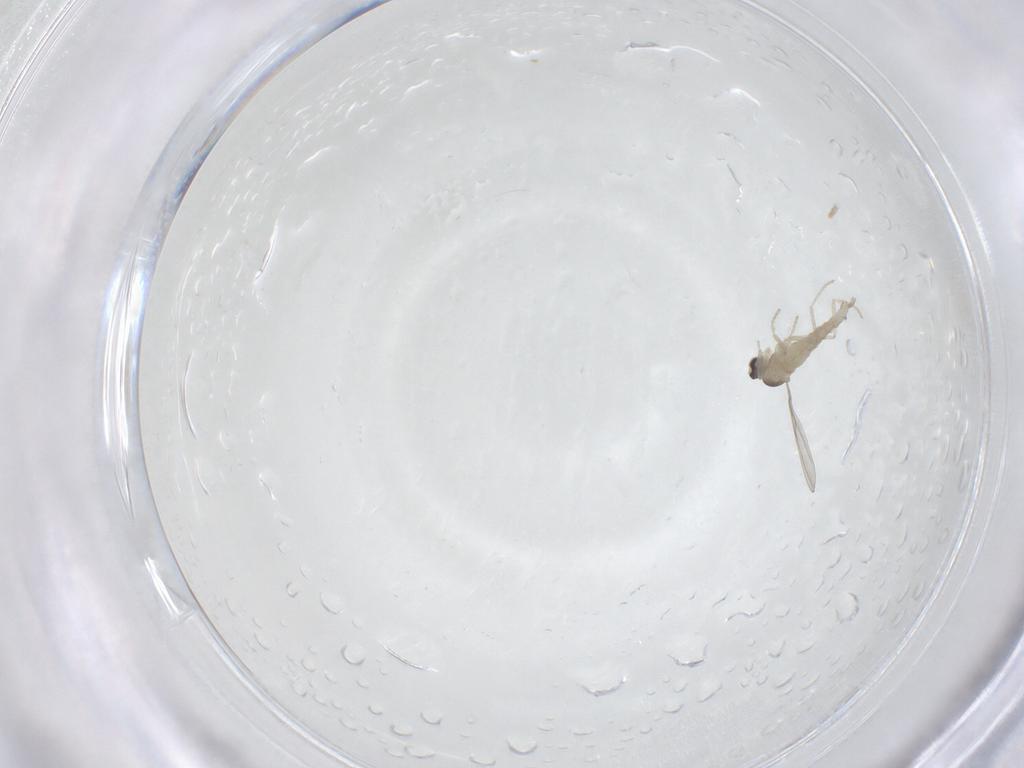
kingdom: Animalia
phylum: Arthropoda
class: Insecta
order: Diptera
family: Cecidomyiidae
